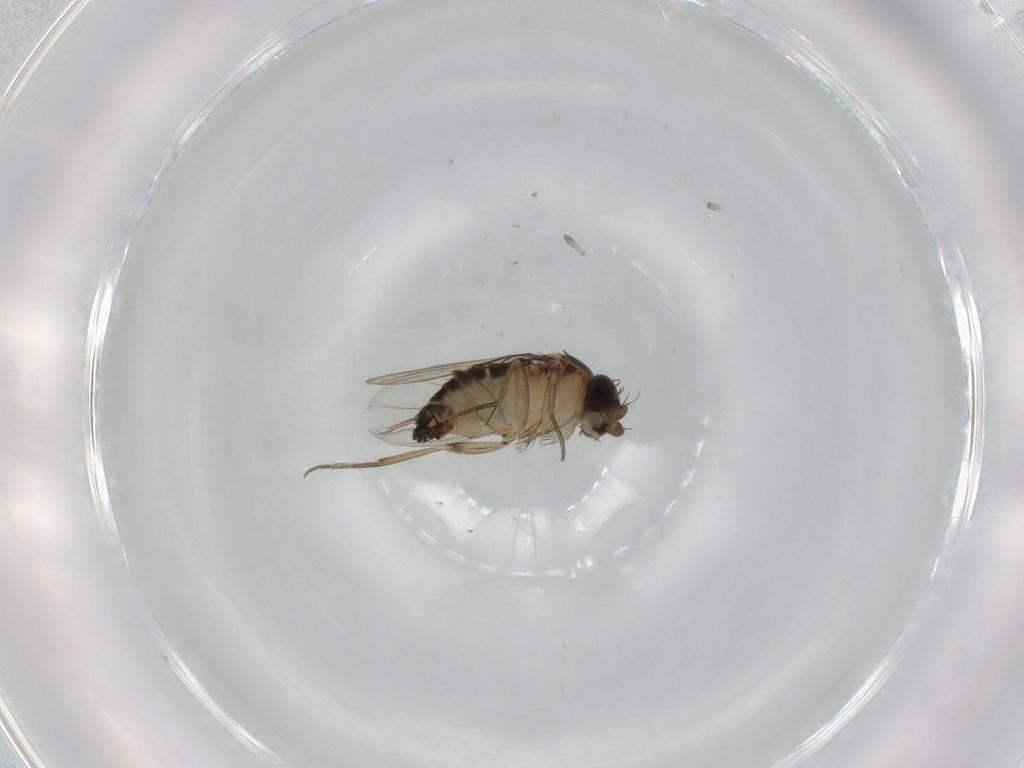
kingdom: Animalia
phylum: Arthropoda
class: Insecta
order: Diptera
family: Phoridae
